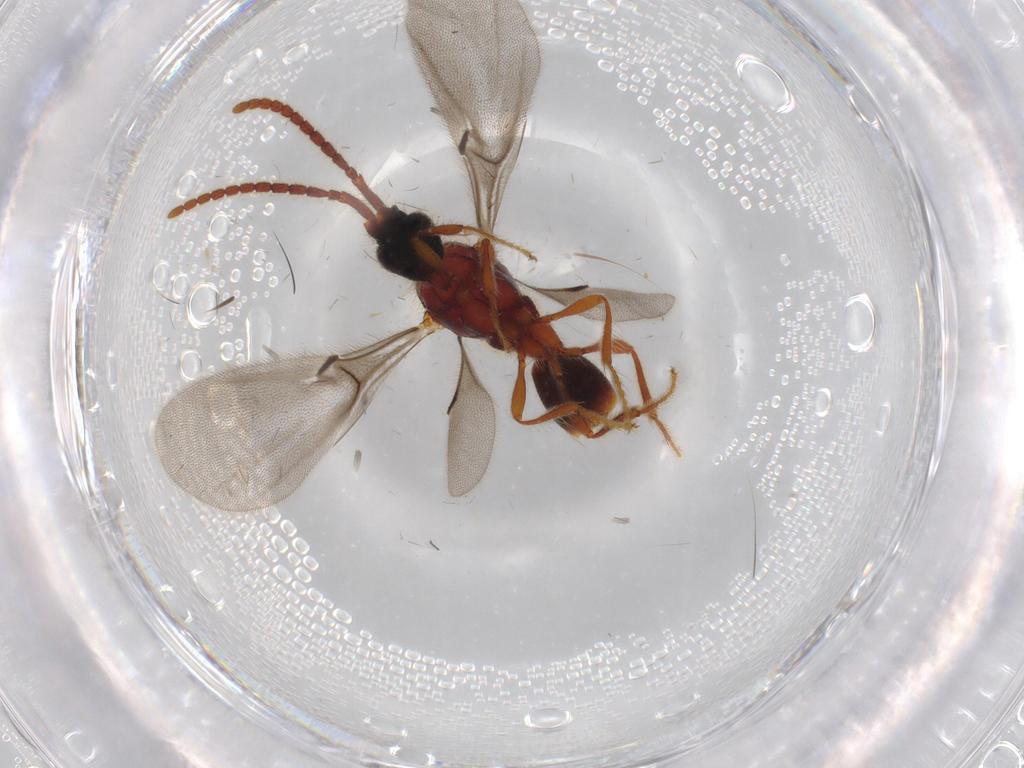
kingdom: Animalia
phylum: Arthropoda
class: Insecta
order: Hymenoptera
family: Diapriidae
